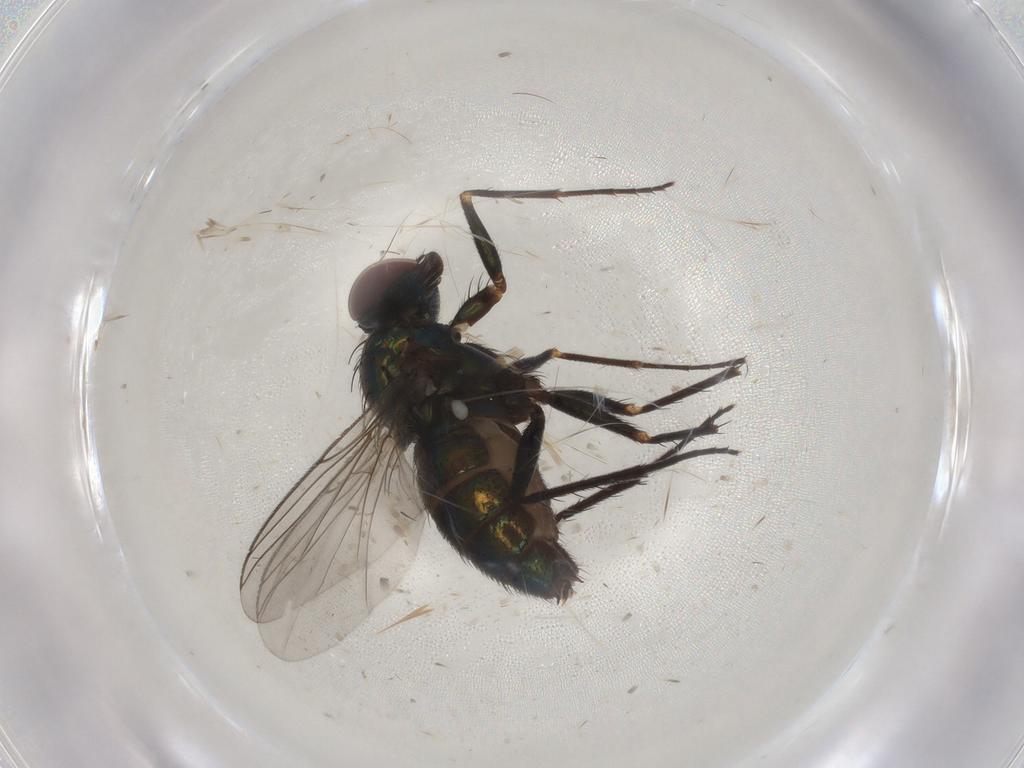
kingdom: Animalia
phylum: Arthropoda
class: Insecta
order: Diptera
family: Dolichopodidae
